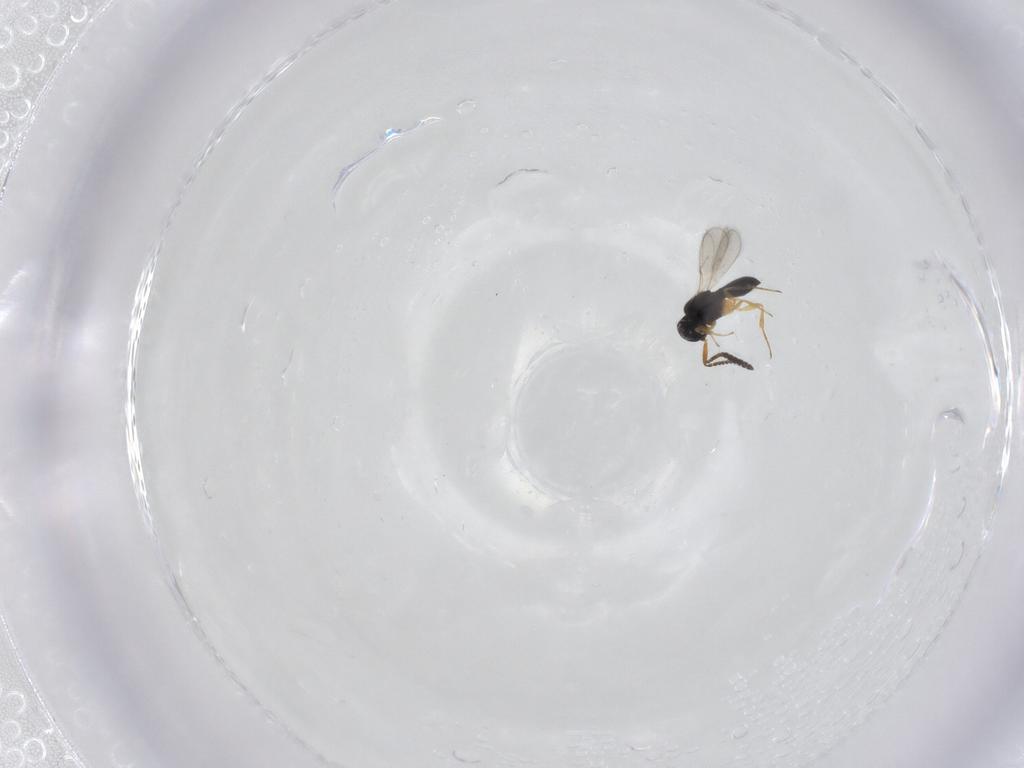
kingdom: Animalia
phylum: Arthropoda
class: Insecta
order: Hymenoptera
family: Scelionidae
